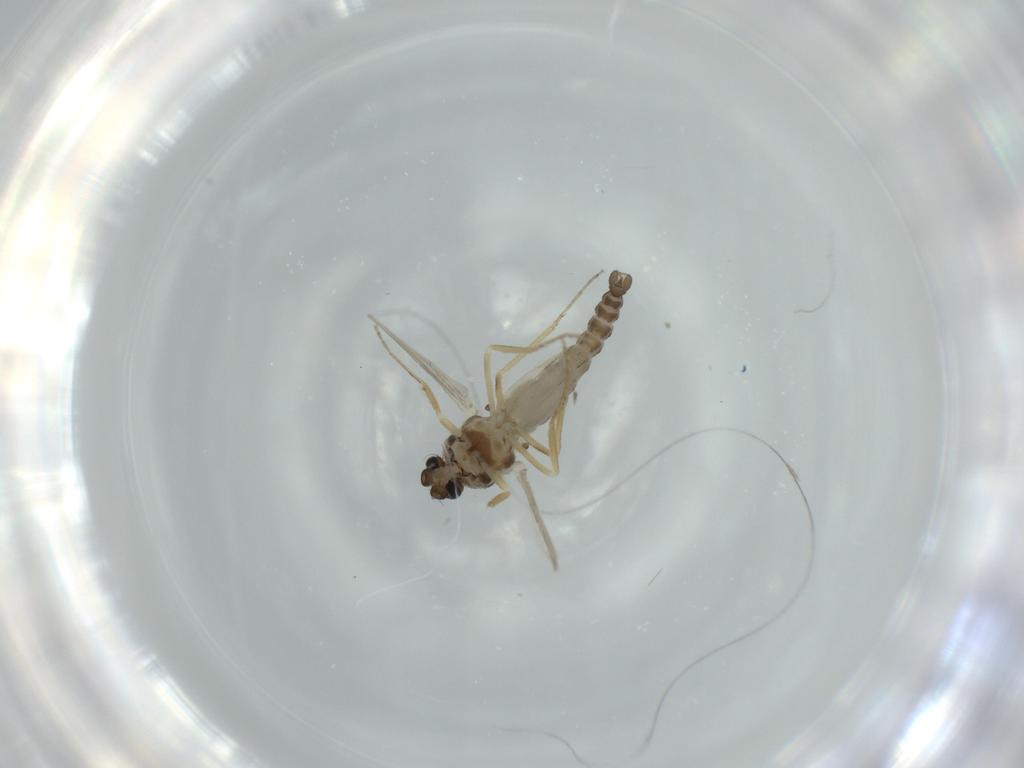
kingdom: Animalia
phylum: Arthropoda
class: Insecta
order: Diptera
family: Ceratopogonidae
